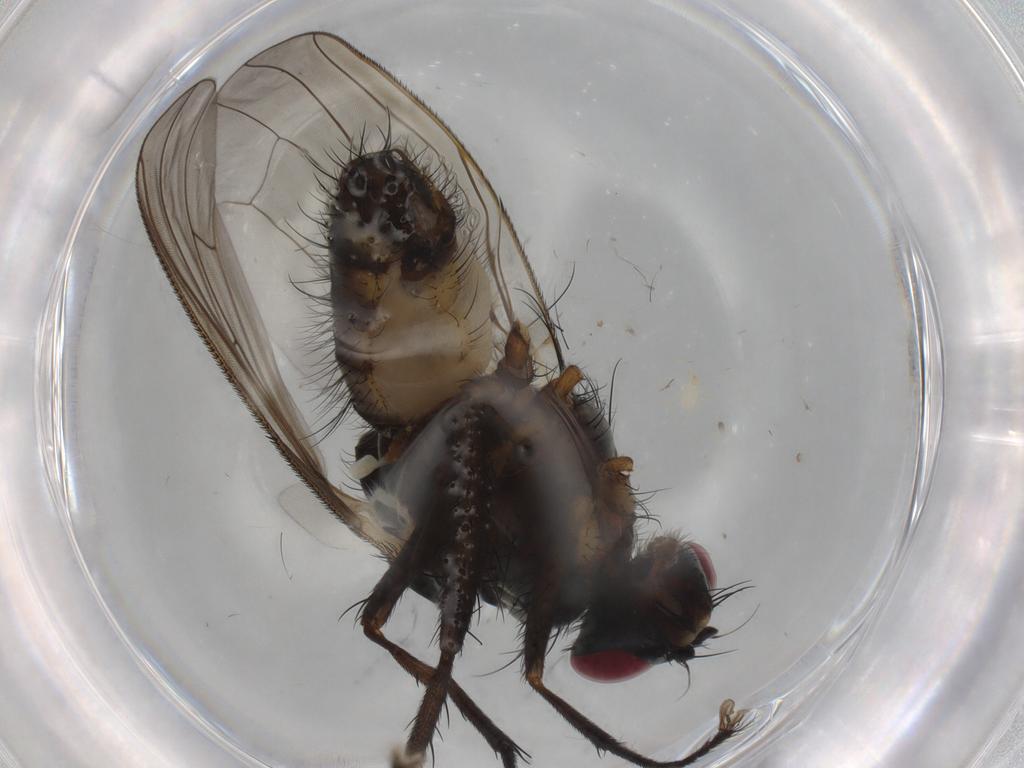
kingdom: Animalia
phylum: Arthropoda
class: Insecta
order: Diptera
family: Anthomyiidae
